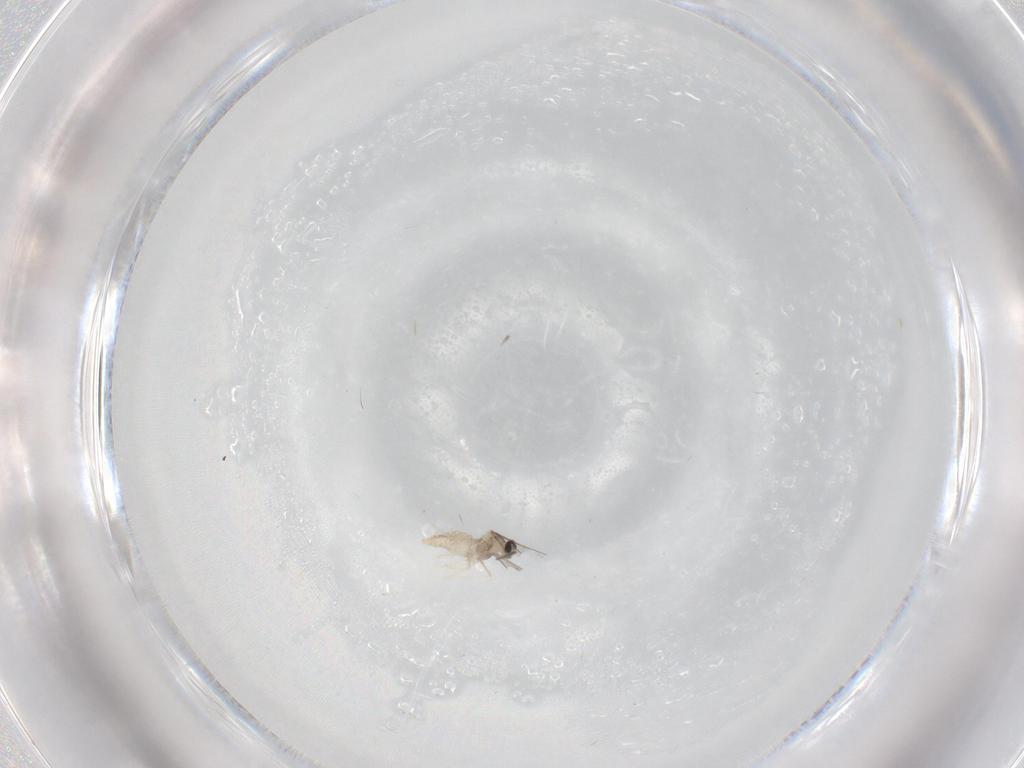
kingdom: Animalia
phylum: Arthropoda
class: Insecta
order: Diptera
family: Cecidomyiidae
